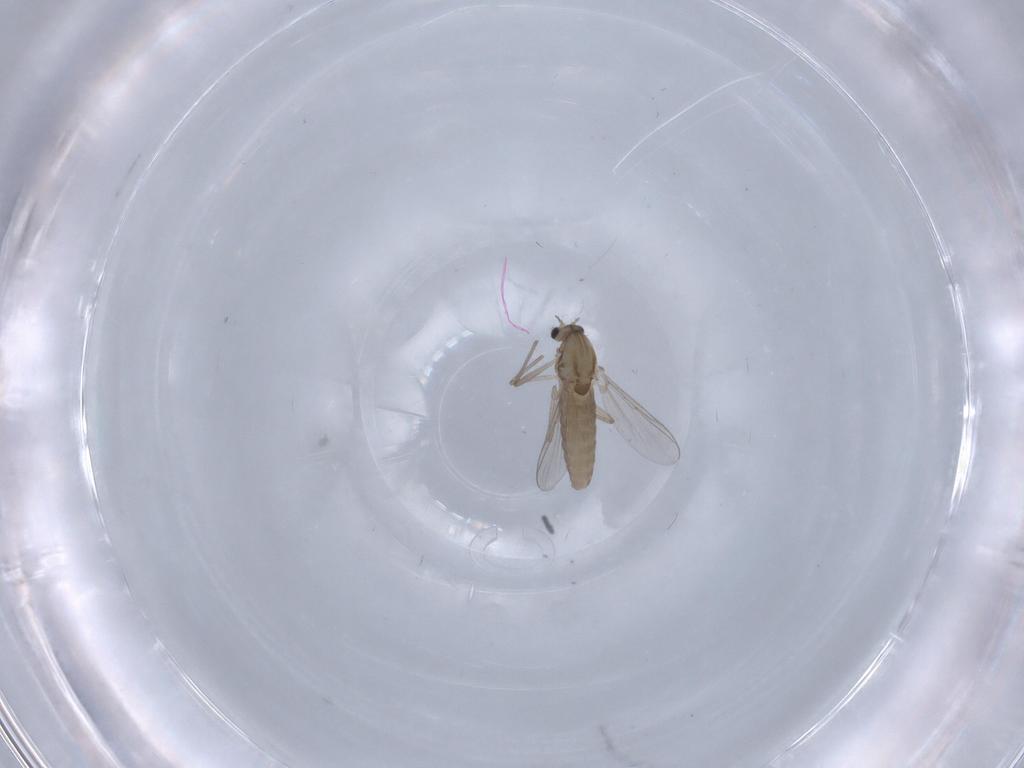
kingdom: Animalia
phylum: Arthropoda
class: Insecta
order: Diptera
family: Chironomidae
